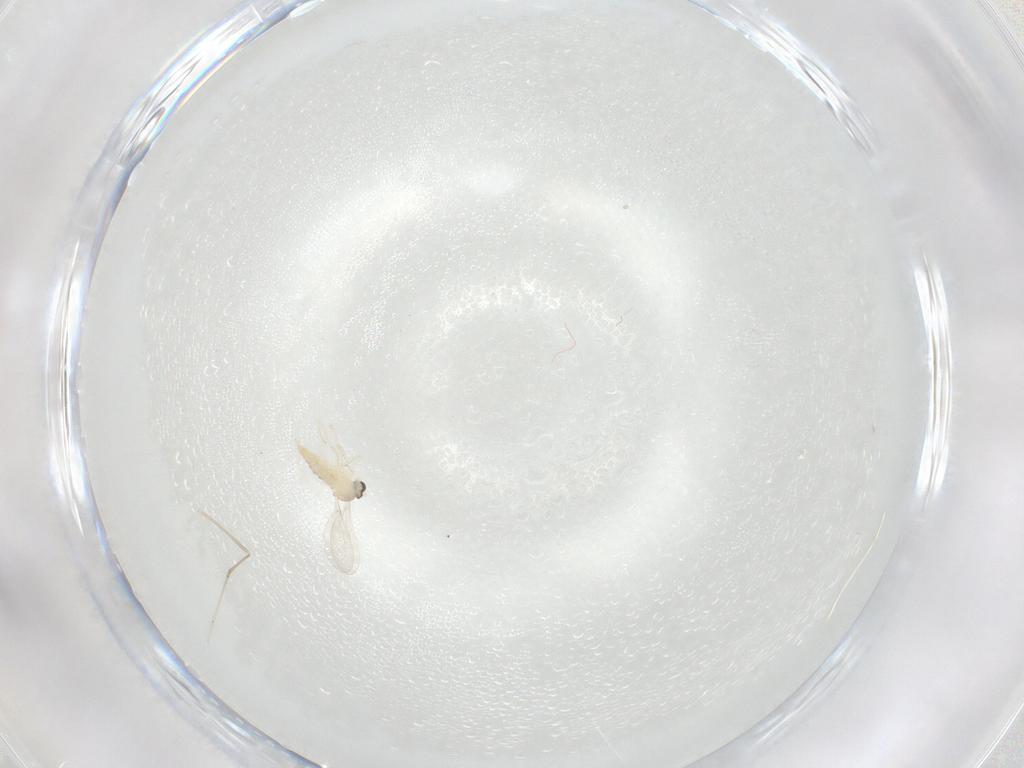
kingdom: Animalia
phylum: Arthropoda
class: Insecta
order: Diptera
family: Cecidomyiidae
